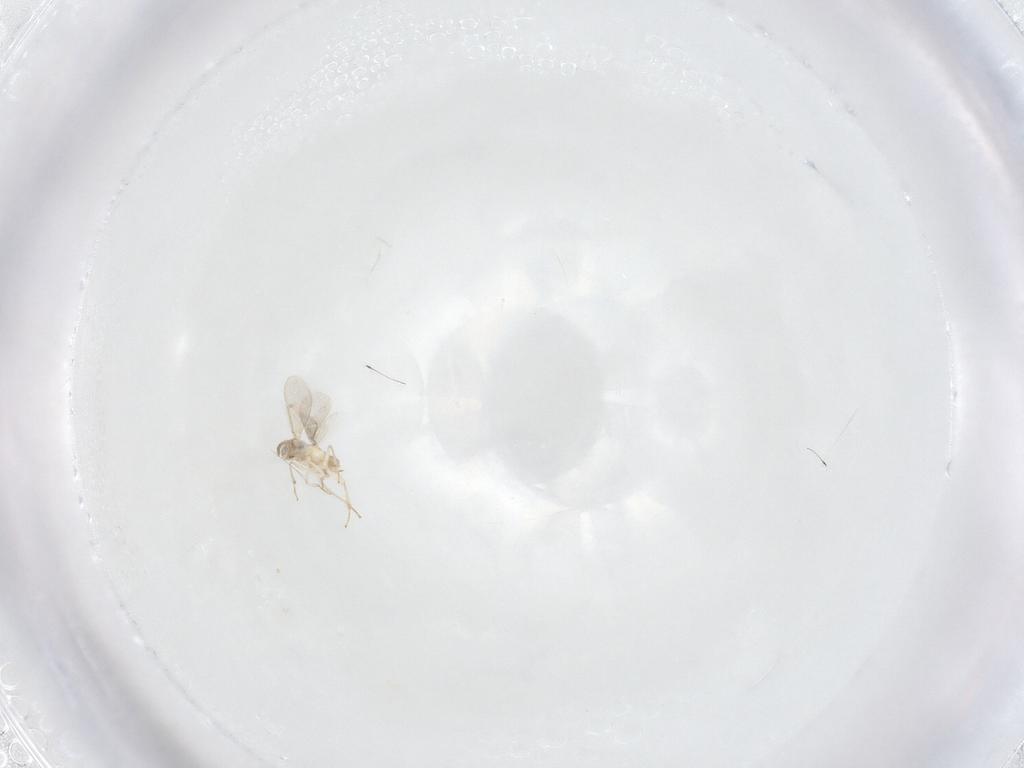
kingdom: Animalia
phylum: Arthropoda
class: Insecta
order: Hymenoptera
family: Aphelinidae
